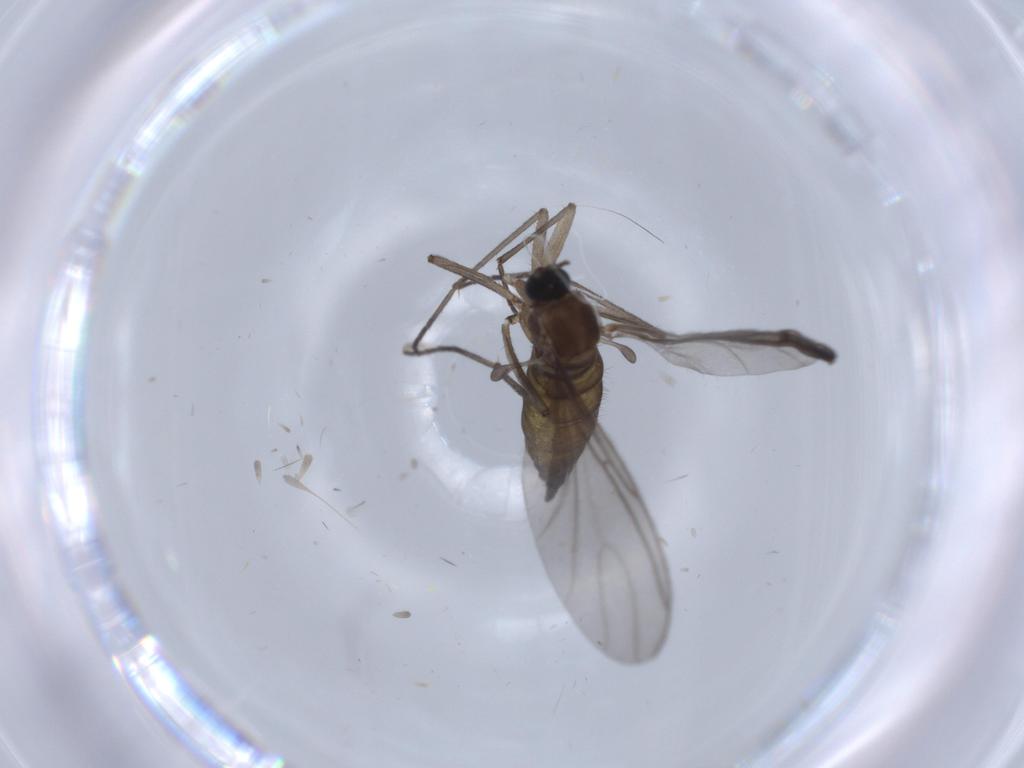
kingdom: Animalia
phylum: Arthropoda
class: Insecta
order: Diptera
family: Sciaridae
